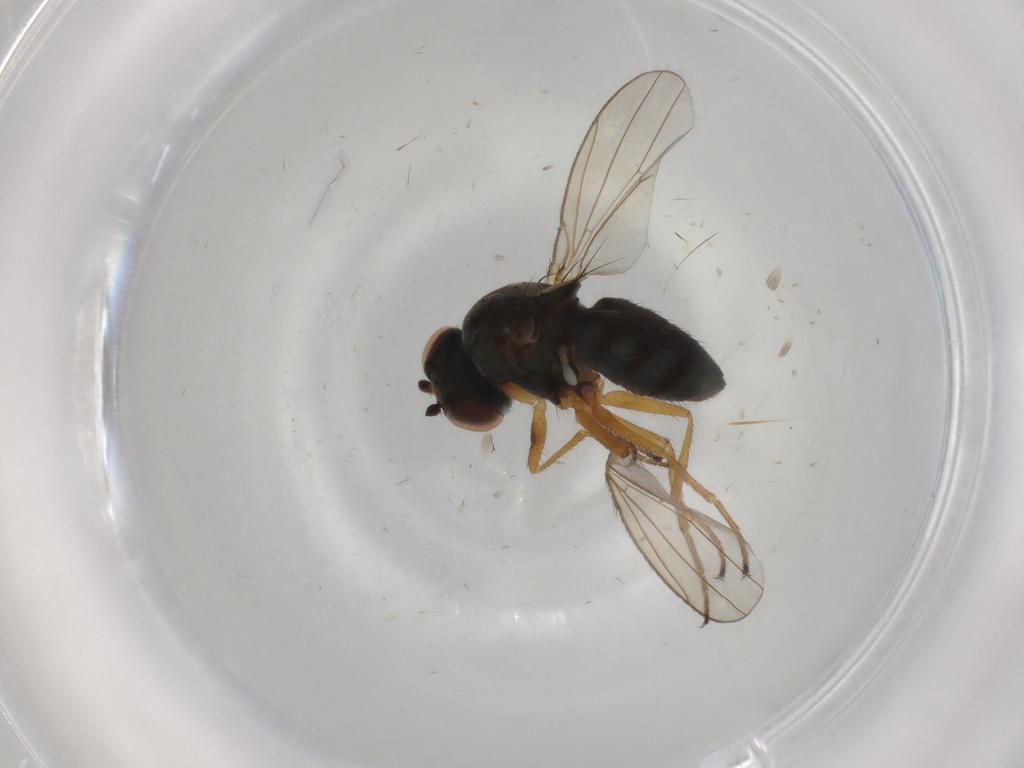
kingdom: Animalia
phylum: Arthropoda
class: Insecta
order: Diptera
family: Ephydridae
